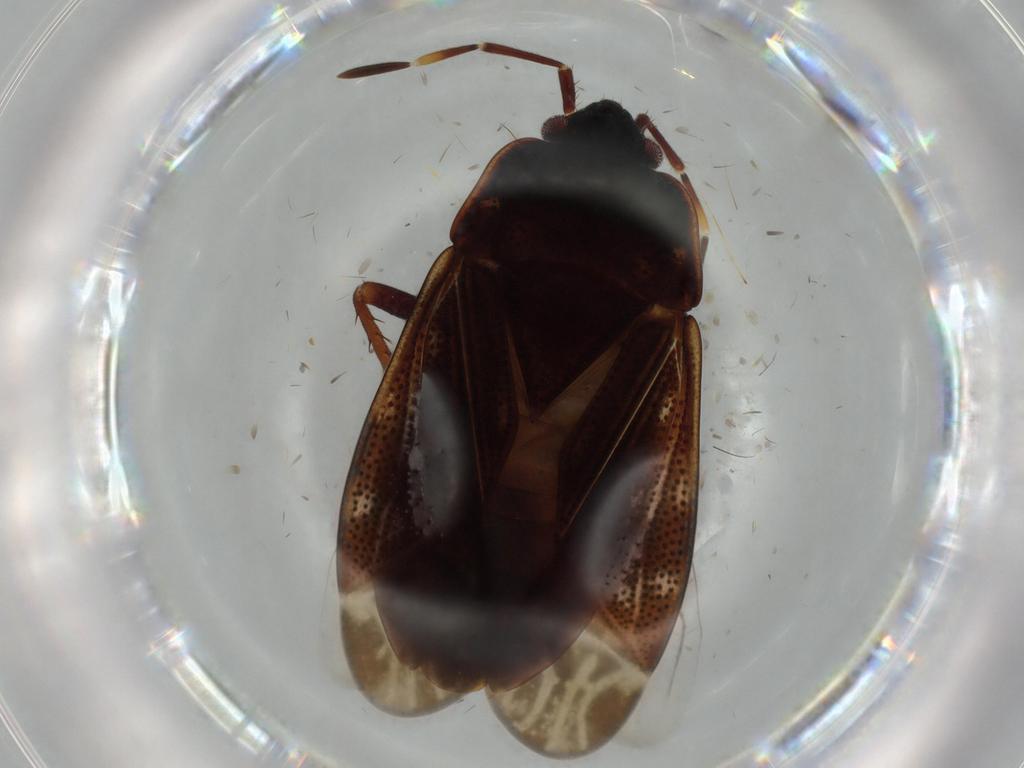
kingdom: Animalia
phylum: Arthropoda
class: Insecta
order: Hemiptera
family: Rhyparochromidae
